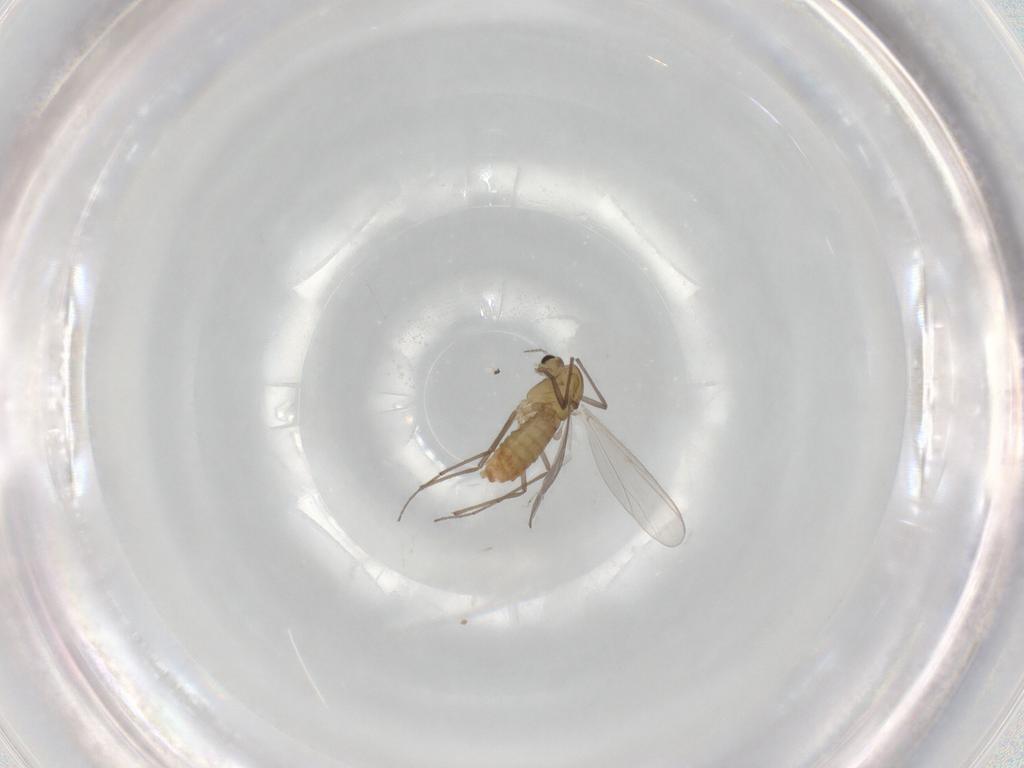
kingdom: Animalia
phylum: Arthropoda
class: Insecta
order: Diptera
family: Chironomidae
